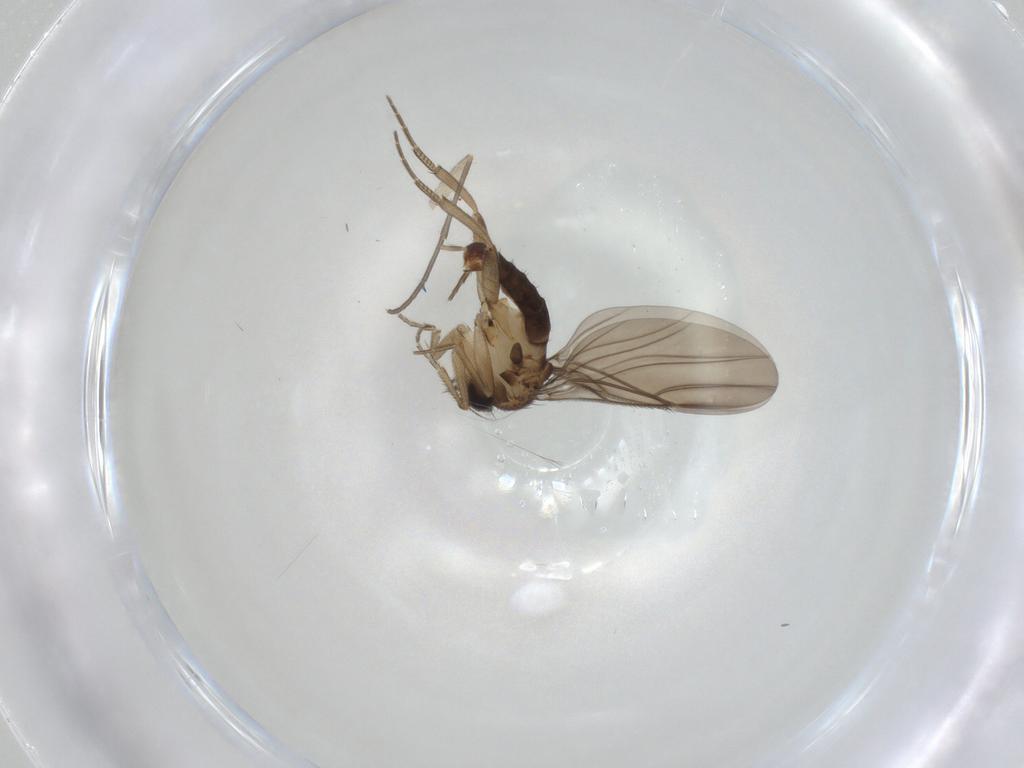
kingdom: Animalia
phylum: Arthropoda
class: Insecta
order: Diptera
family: Phoridae
